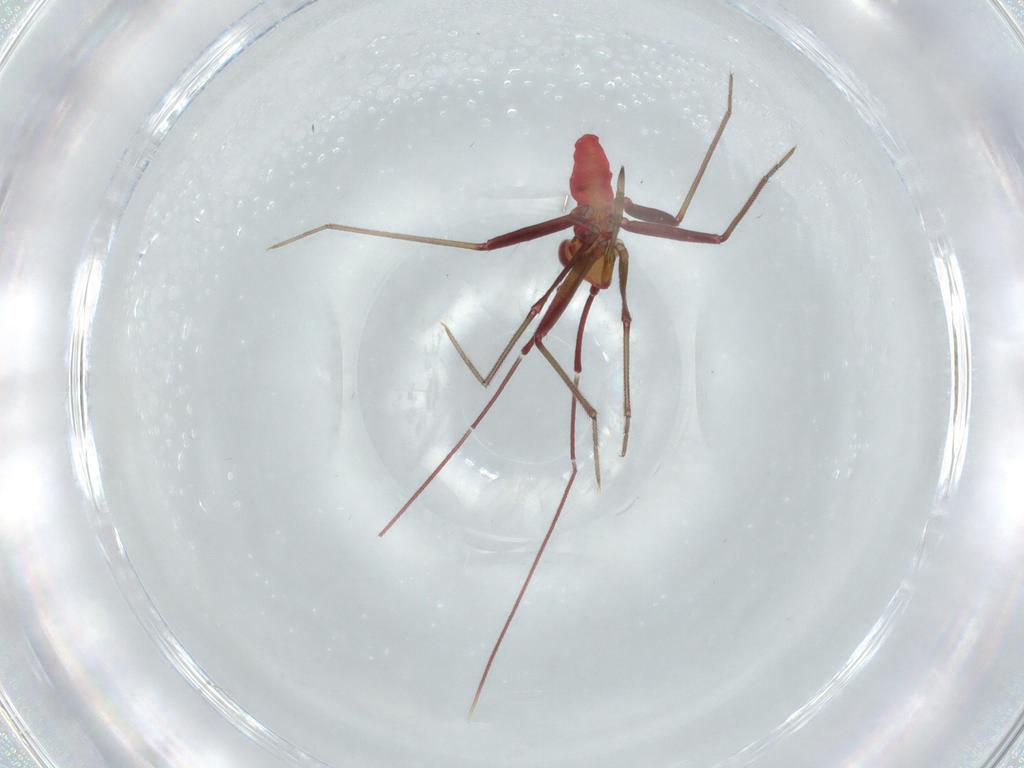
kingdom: Animalia
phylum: Arthropoda
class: Insecta
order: Hemiptera
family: Miridae
